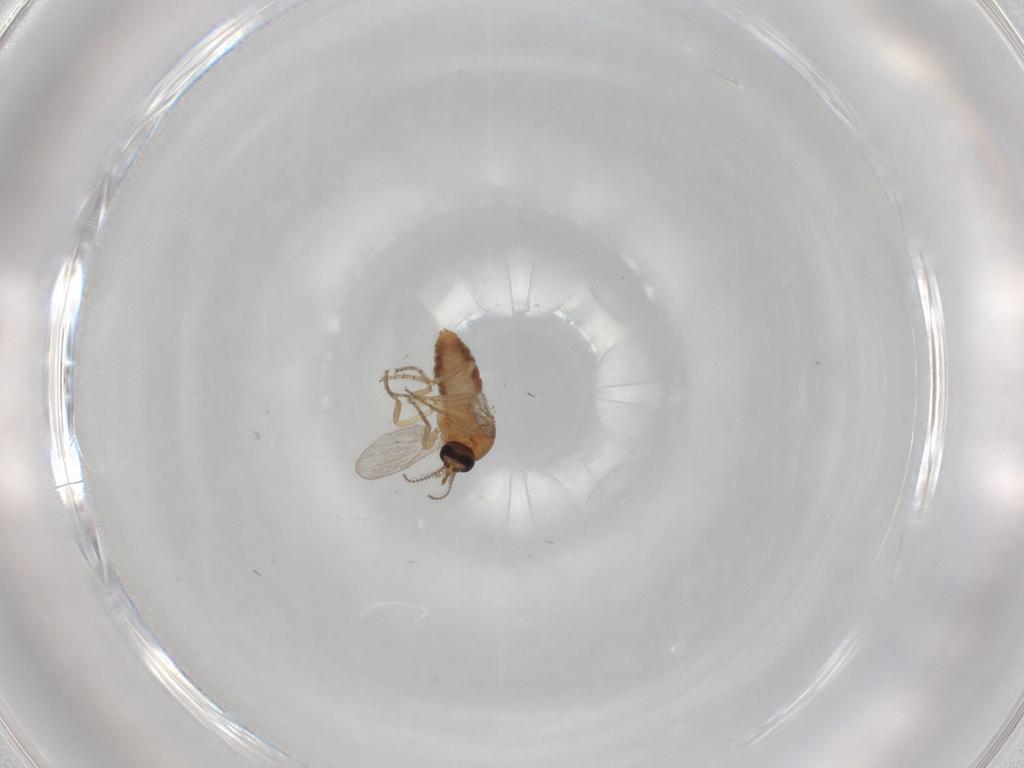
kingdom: Animalia
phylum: Arthropoda
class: Insecta
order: Diptera
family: Ceratopogonidae
